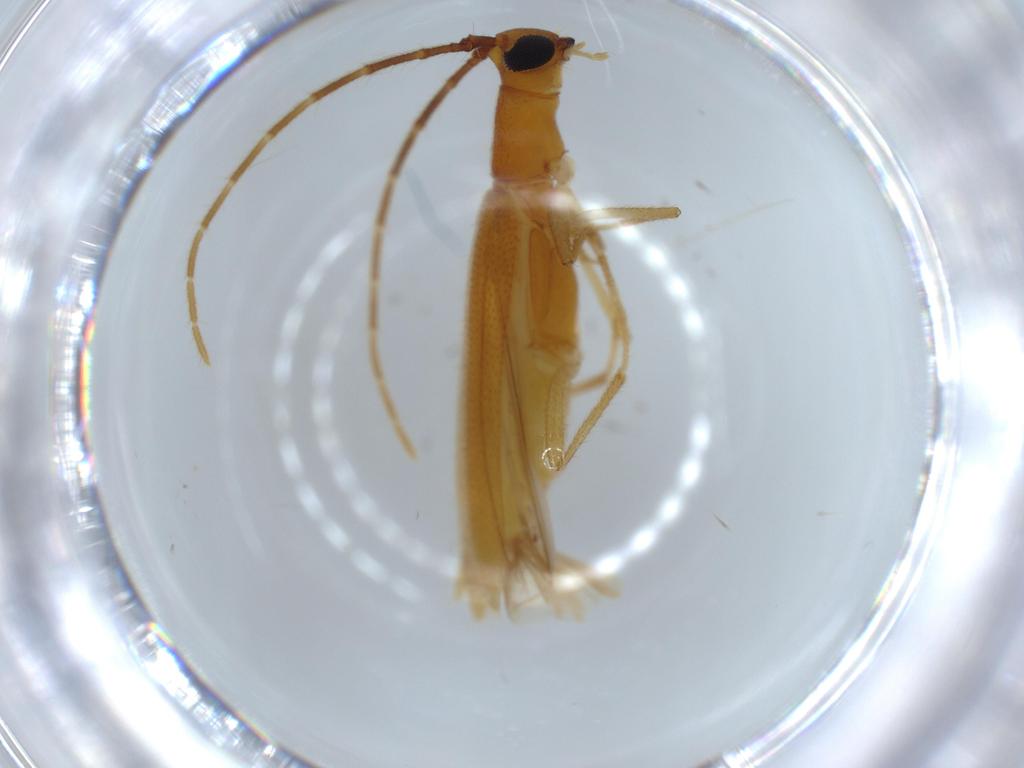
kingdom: Animalia
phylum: Arthropoda
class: Insecta
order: Coleoptera
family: Cerambycidae
